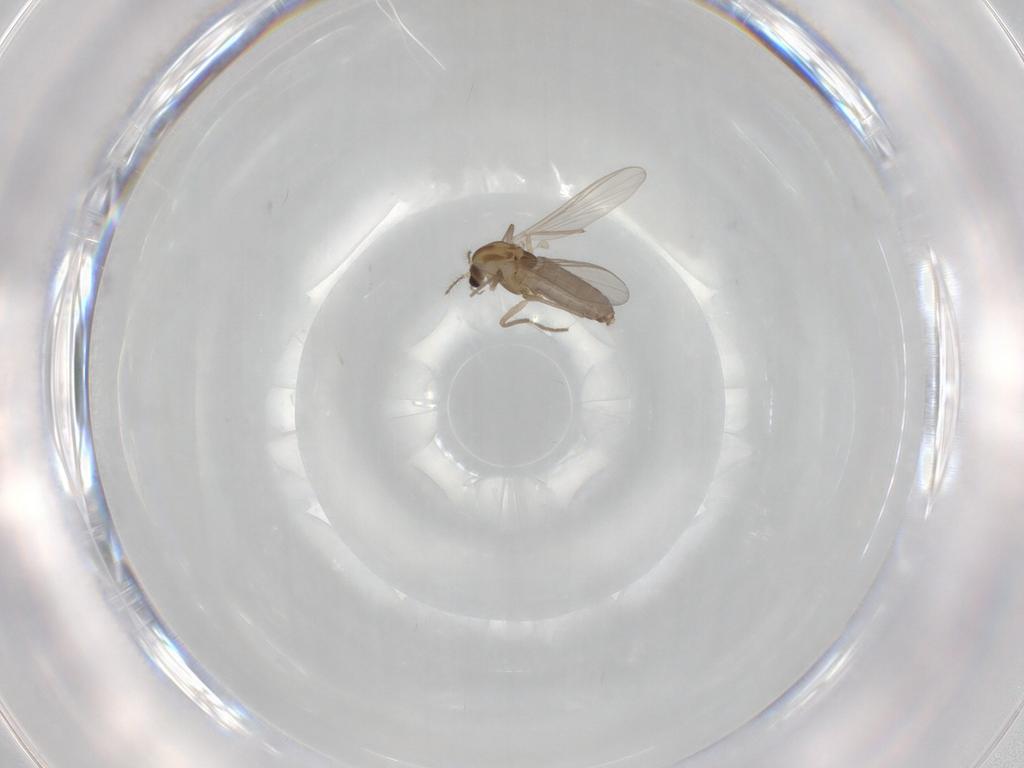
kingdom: Animalia
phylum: Arthropoda
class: Insecta
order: Diptera
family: Chironomidae
